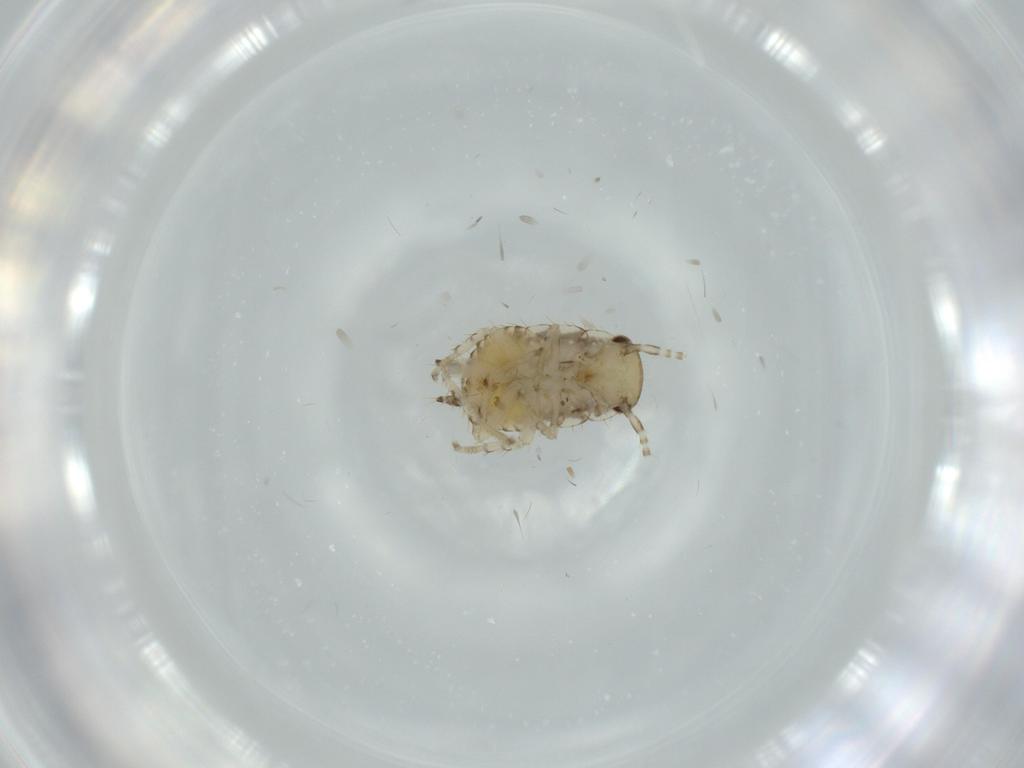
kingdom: Animalia
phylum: Arthropoda
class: Insecta
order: Blattodea
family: Ectobiidae
